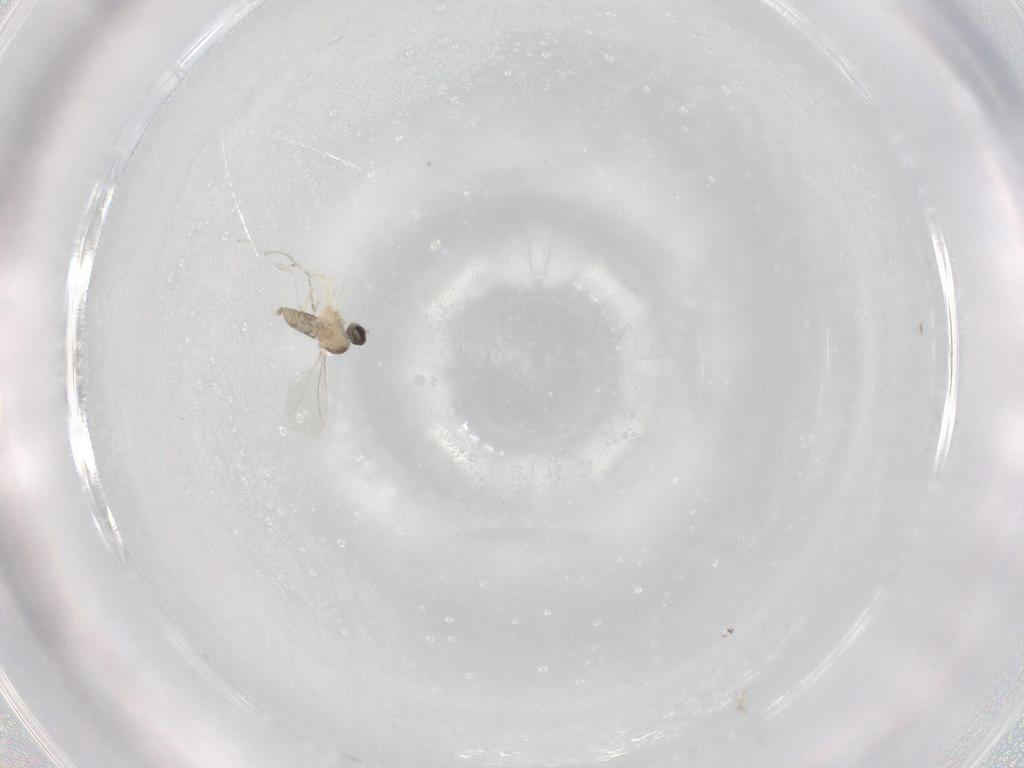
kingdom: Animalia
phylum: Arthropoda
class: Insecta
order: Diptera
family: Cecidomyiidae
